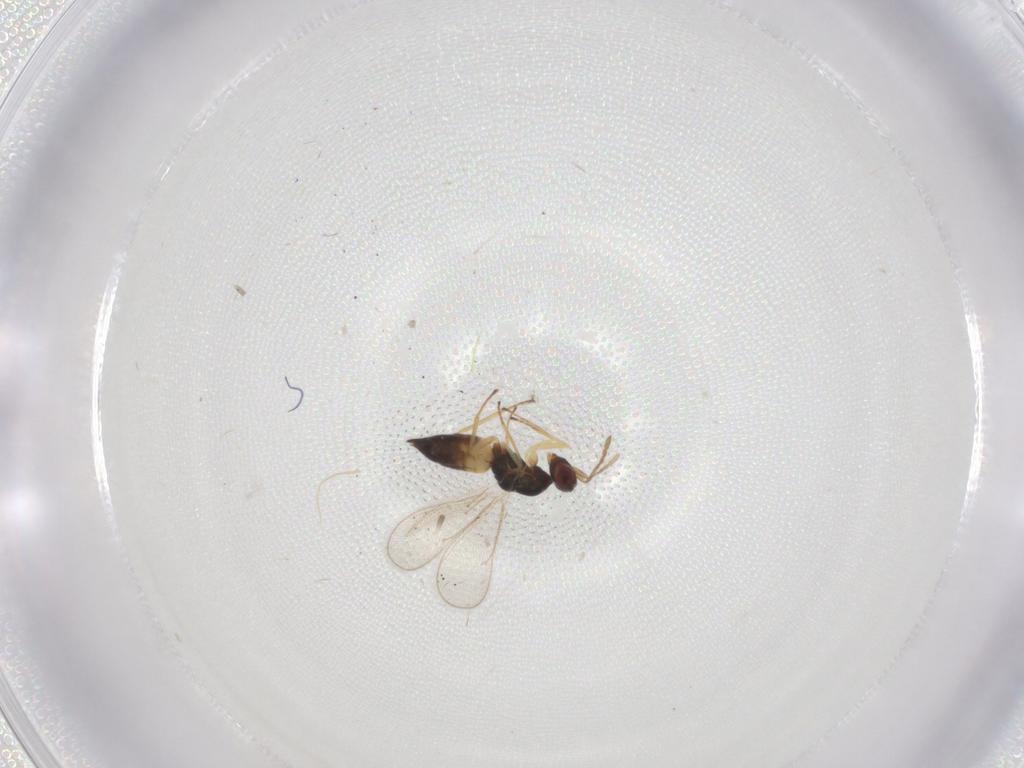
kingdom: Animalia
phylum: Arthropoda
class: Insecta
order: Hymenoptera
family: Eulophidae
